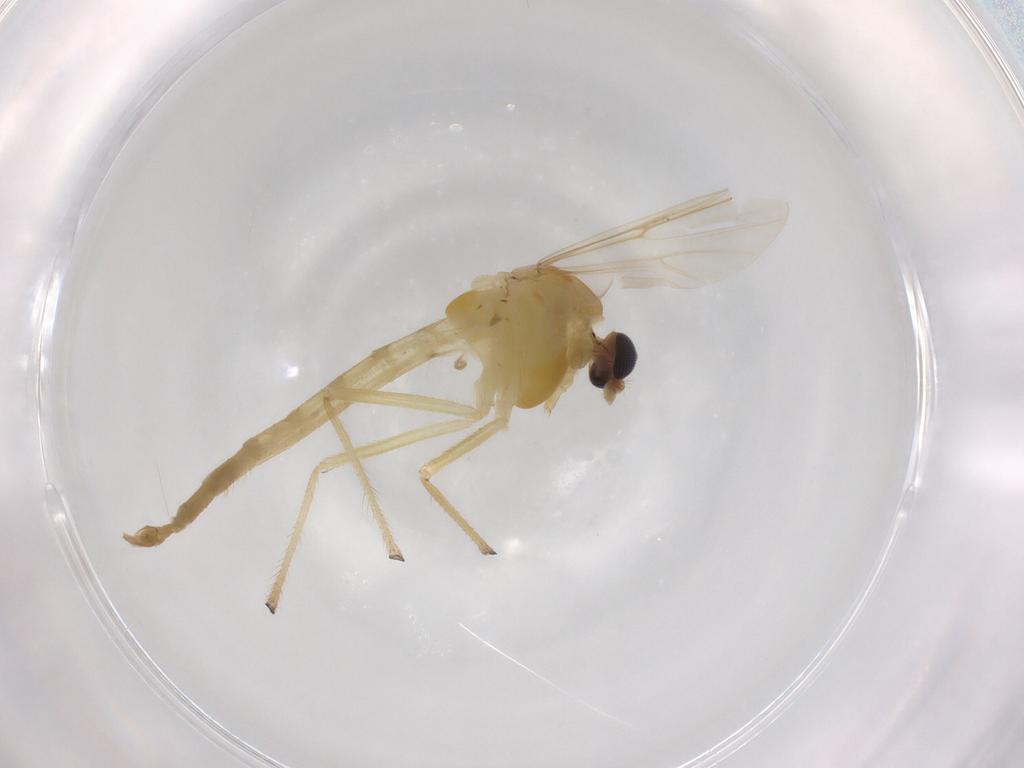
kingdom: Animalia
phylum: Arthropoda
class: Insecta
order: Diptera
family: Chironomidae
